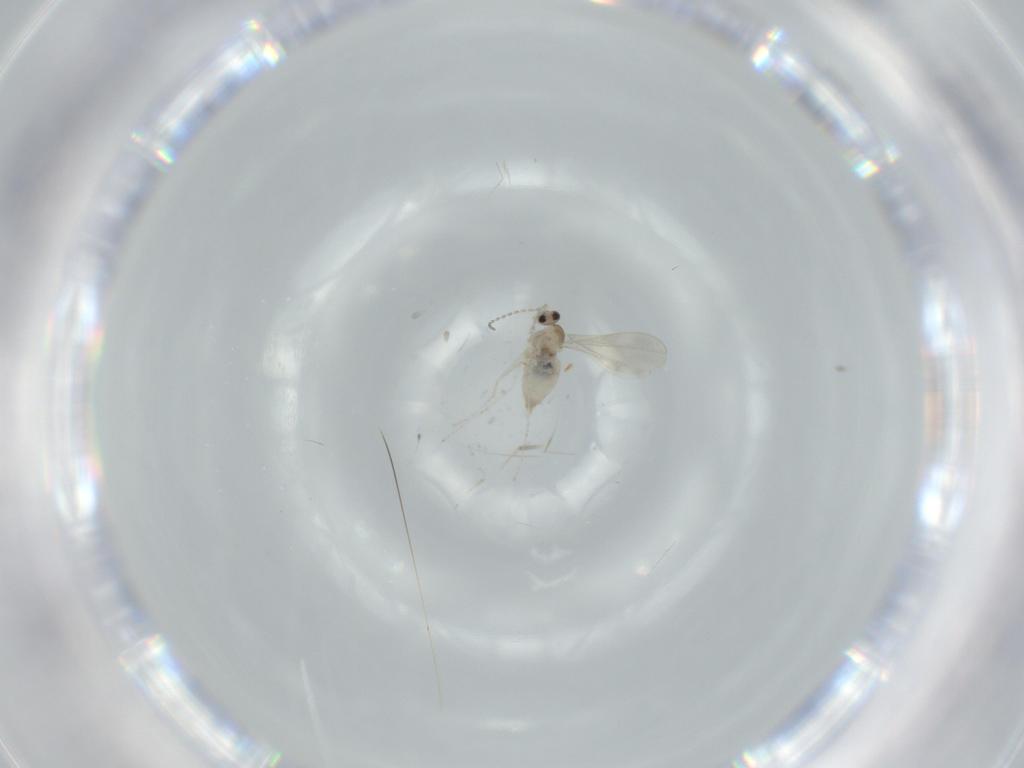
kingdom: Animalia
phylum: Arthropoda
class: Insecta
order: Diptera
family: Cecidomyiidae
